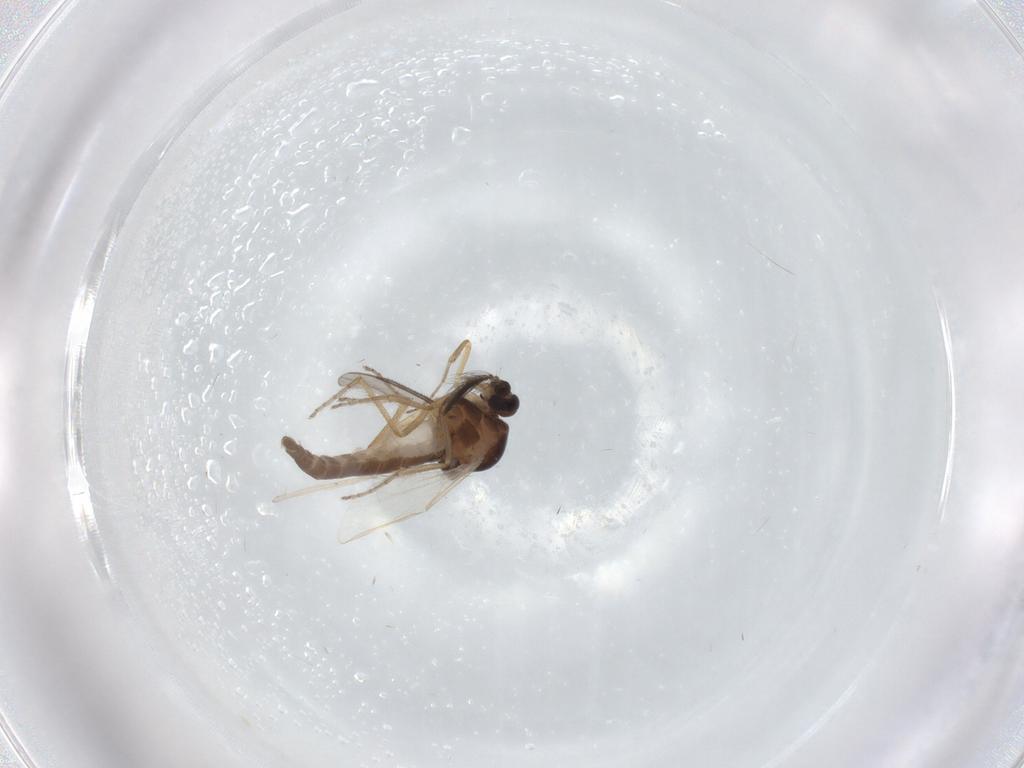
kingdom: Animalia
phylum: Arthropoda
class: Insecta
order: Diptera
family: Ceratopogonidae
